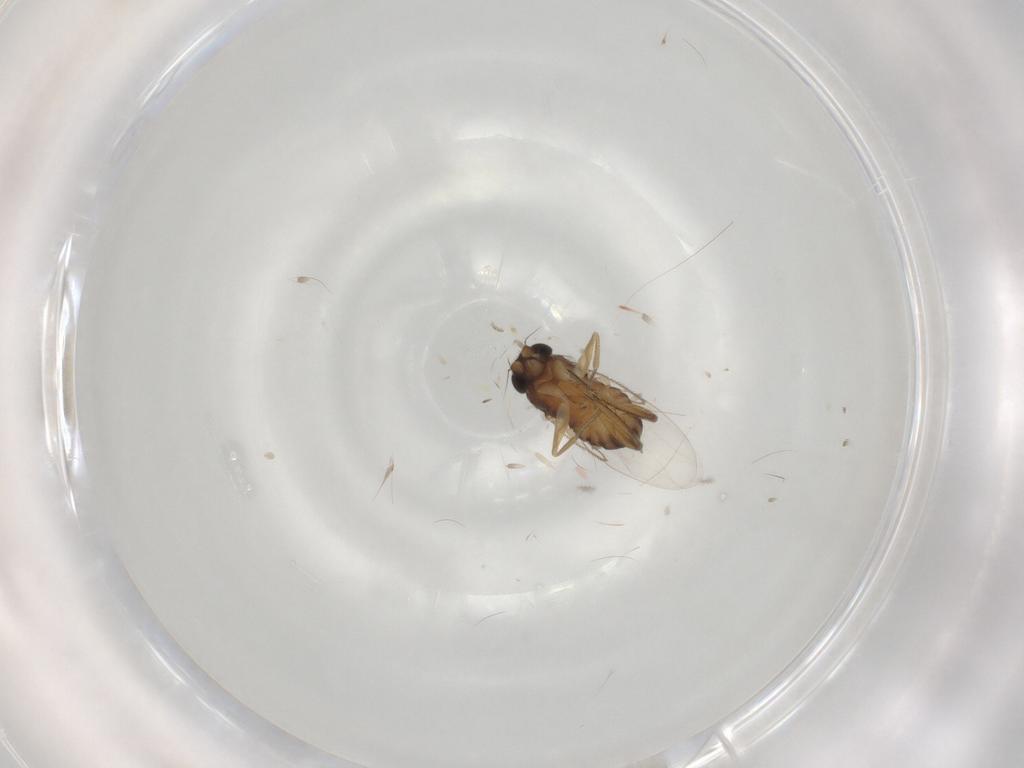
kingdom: Animalia
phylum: Arthropoda
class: Insecta
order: Diptera
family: Phoridae
